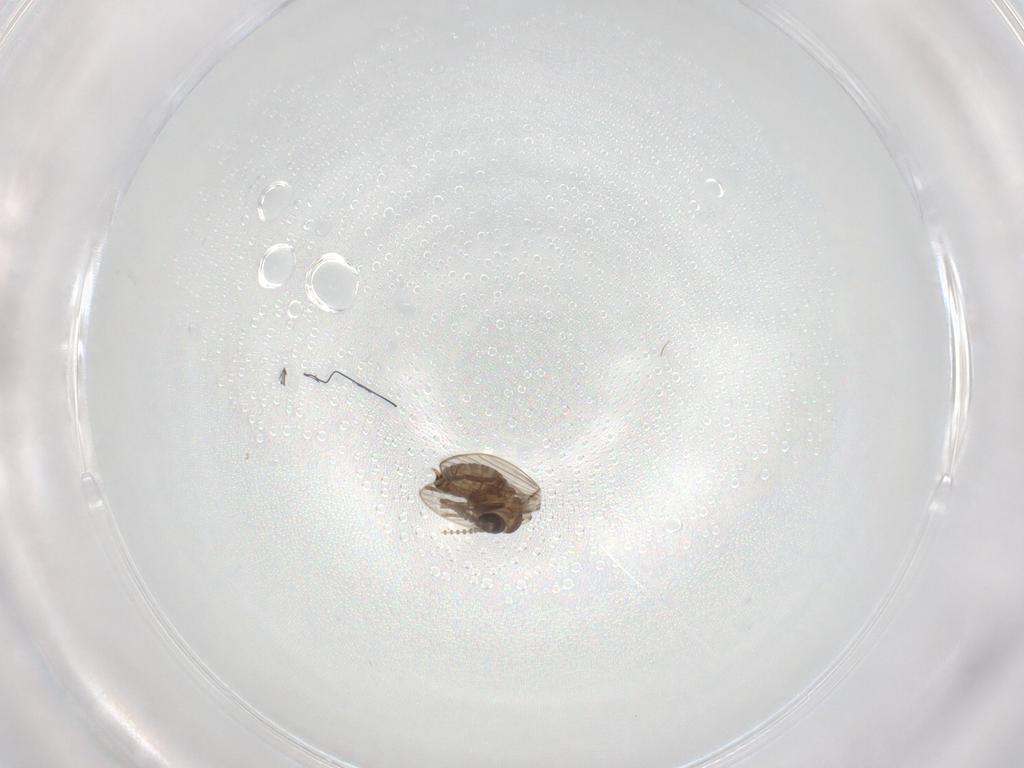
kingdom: Animalia
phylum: Arthropoda
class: Insecta
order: Diptera
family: Psychodidae
